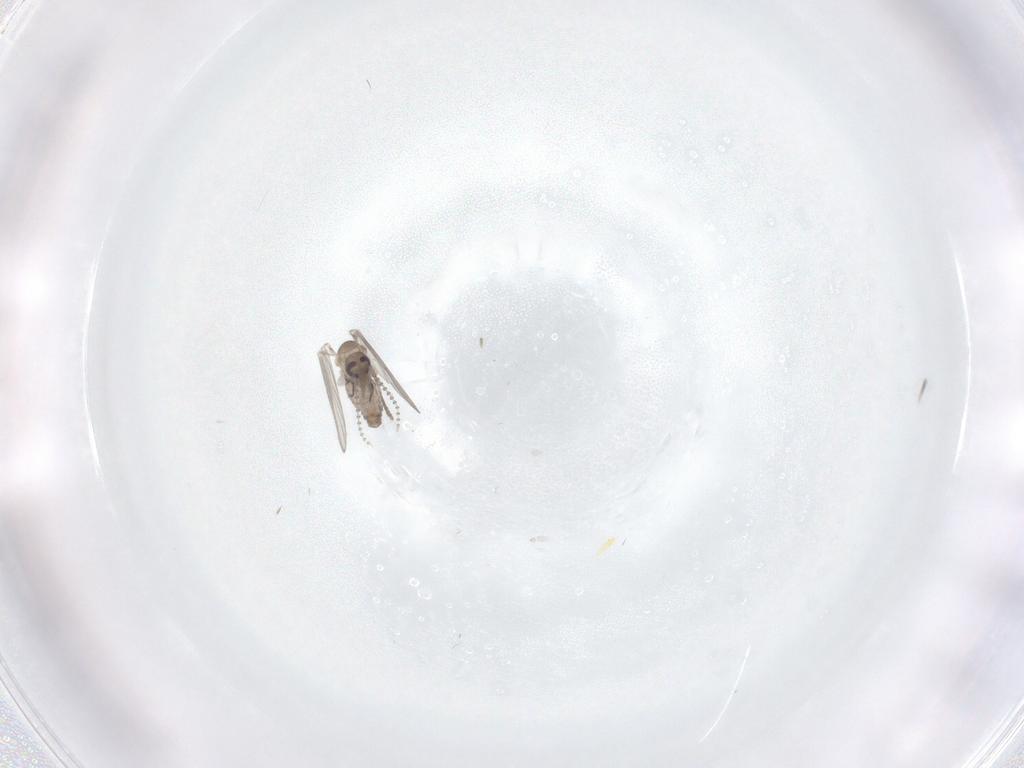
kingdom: Animalia
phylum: Arthropoda
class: Insecta
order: Diptera
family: Psychodidae
